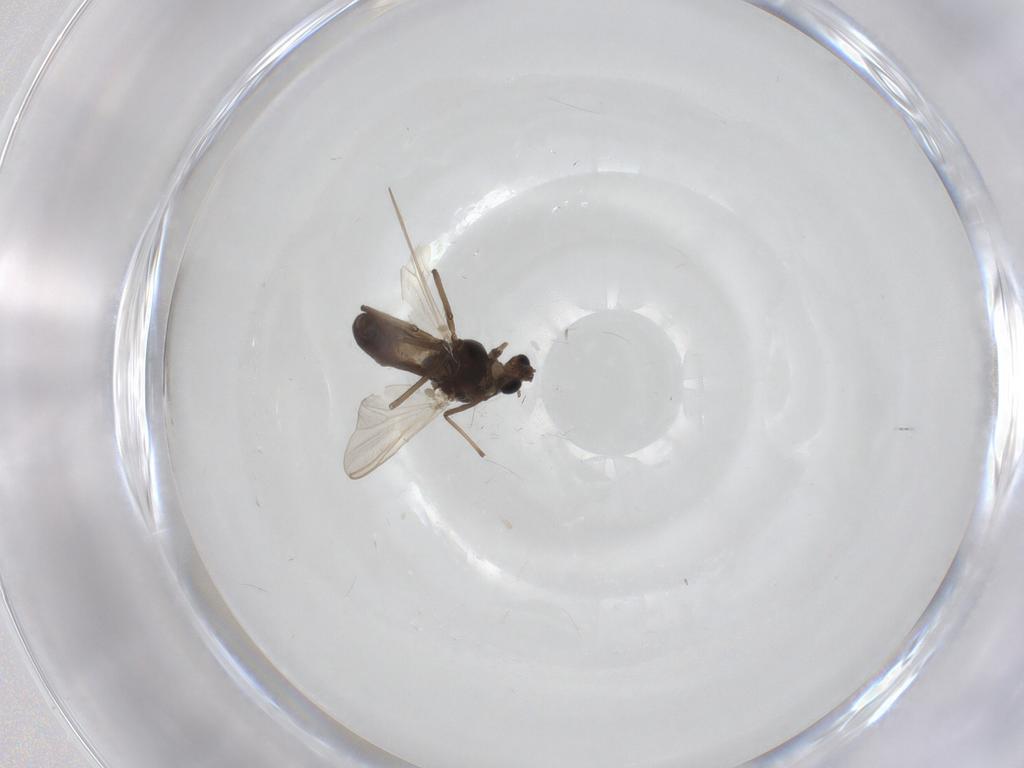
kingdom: Animalia
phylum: Arthropoda
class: Insecta
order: Diptera
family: Chironomidae
